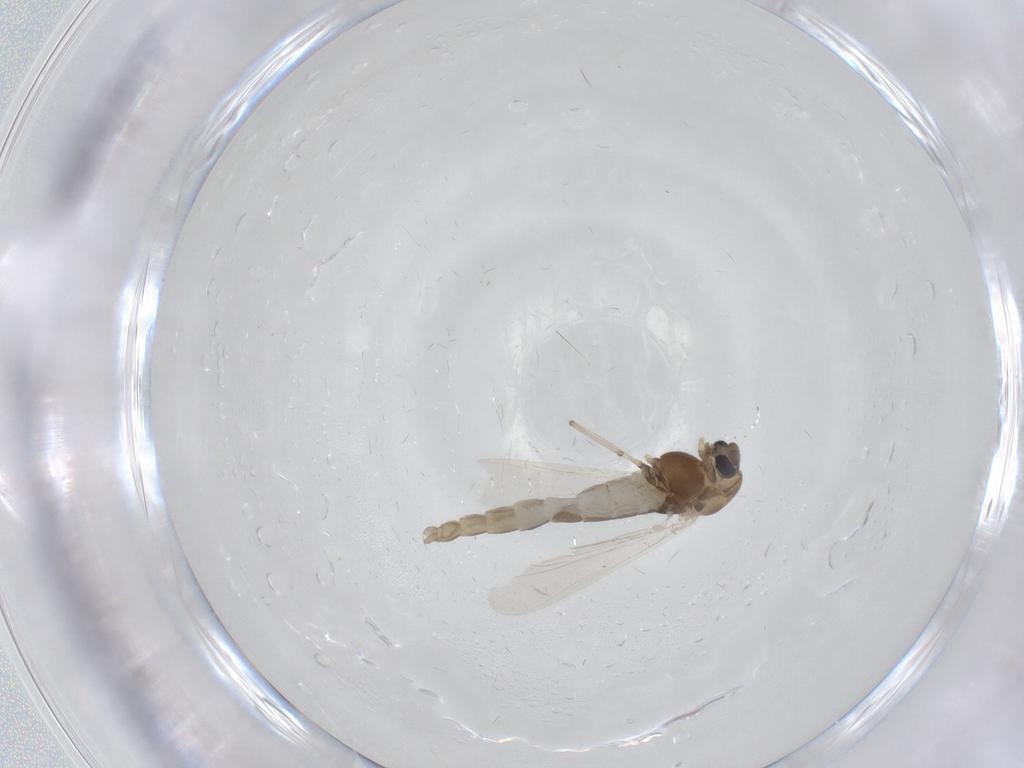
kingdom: Animalia
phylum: Arthropoda
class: Insecta
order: Diptera
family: Chironomidae
